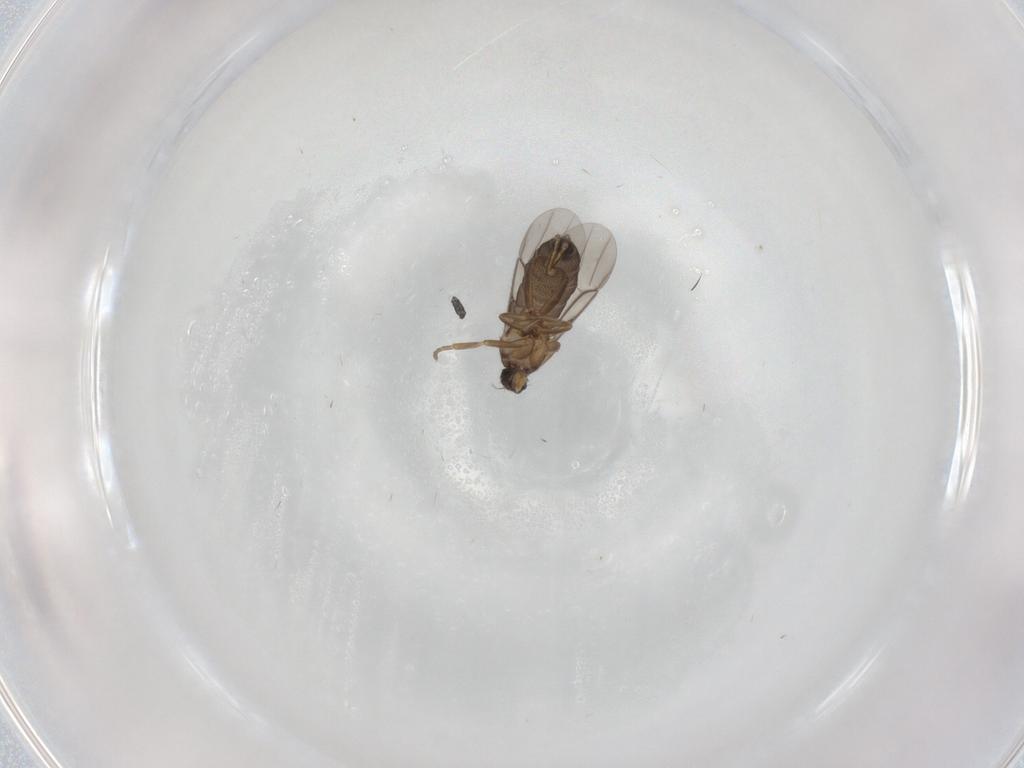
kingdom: Animalia
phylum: Arthropoda
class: Insecta
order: Diptera
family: Phoridae
